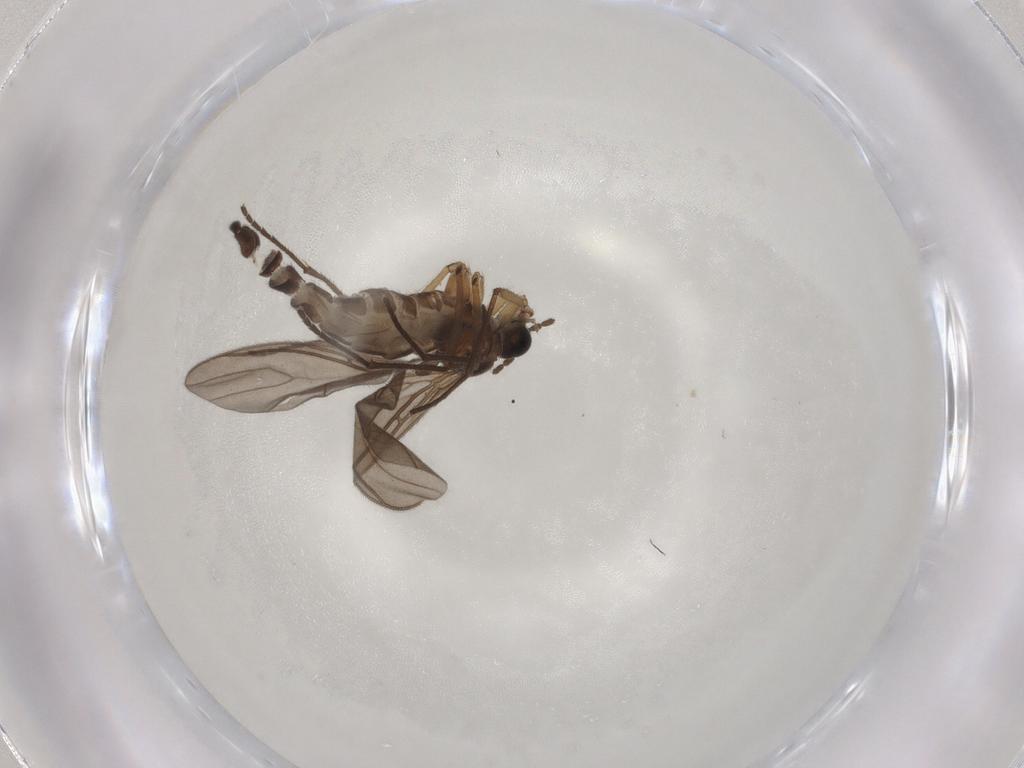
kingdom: Animalia
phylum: Arthropoda
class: Insecta
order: Diptera
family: Sciaridae
